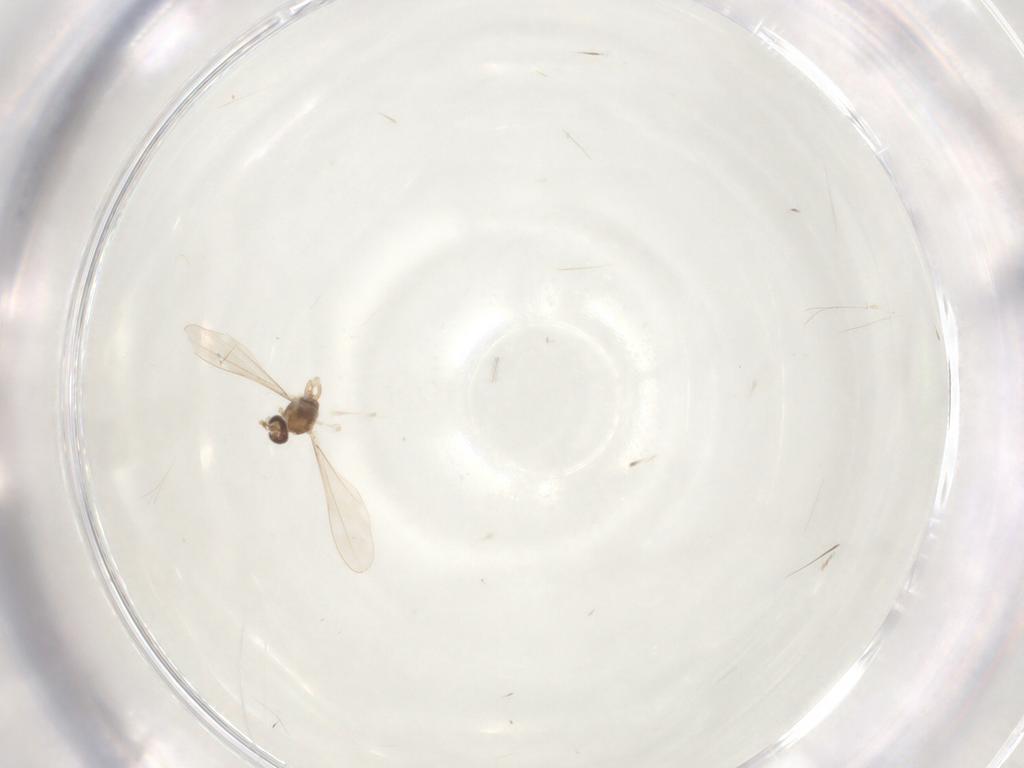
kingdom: Animalia
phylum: Arthropoda
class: Insecta
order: Diptera
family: Cecidomyiidae
